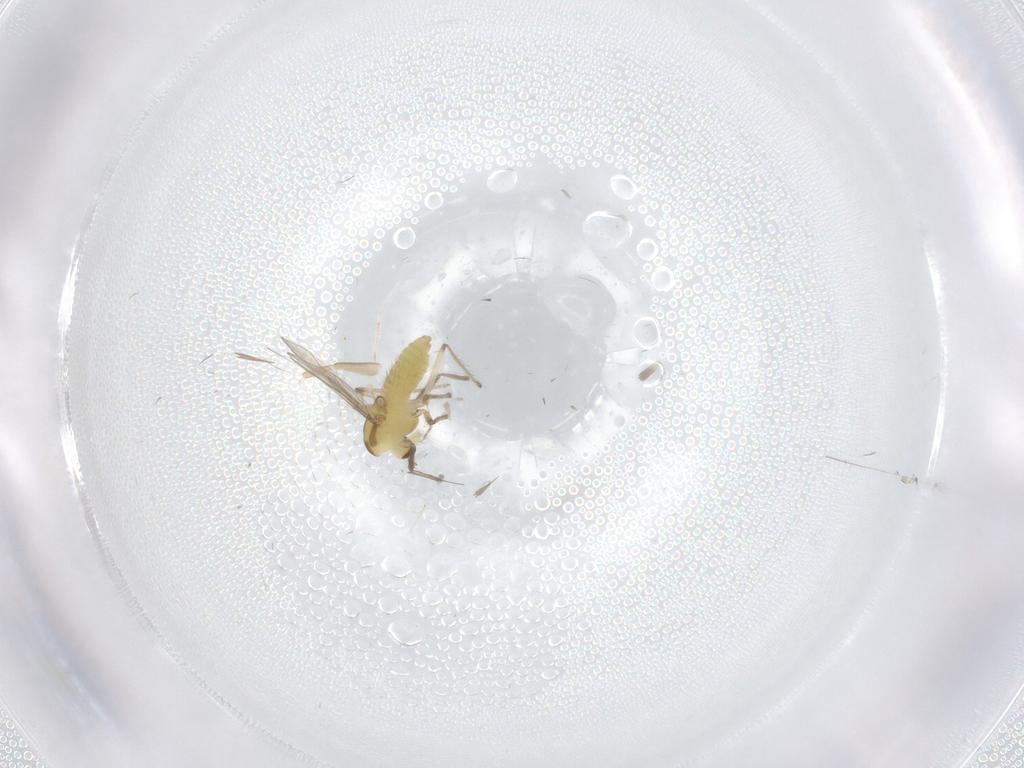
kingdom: Animalia
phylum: Arthropoda
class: Insecta
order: Diptera
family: Chironomidae
